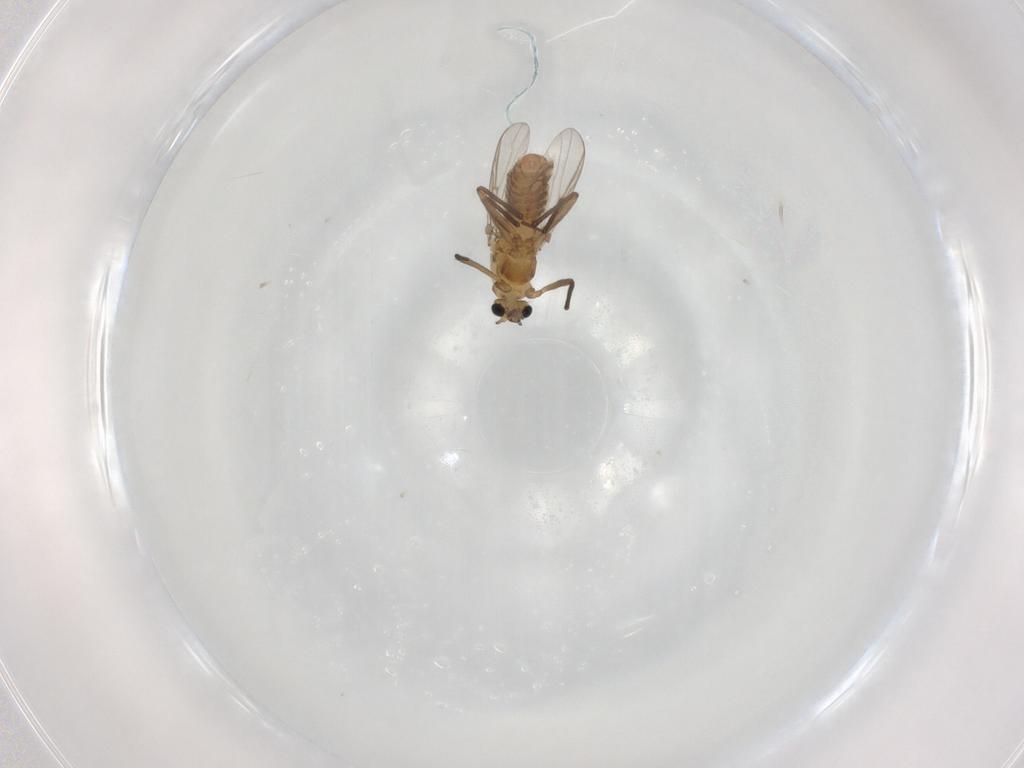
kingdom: Animalia
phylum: Arthropoda
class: Insecta
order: Diptera
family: Chironomidae
